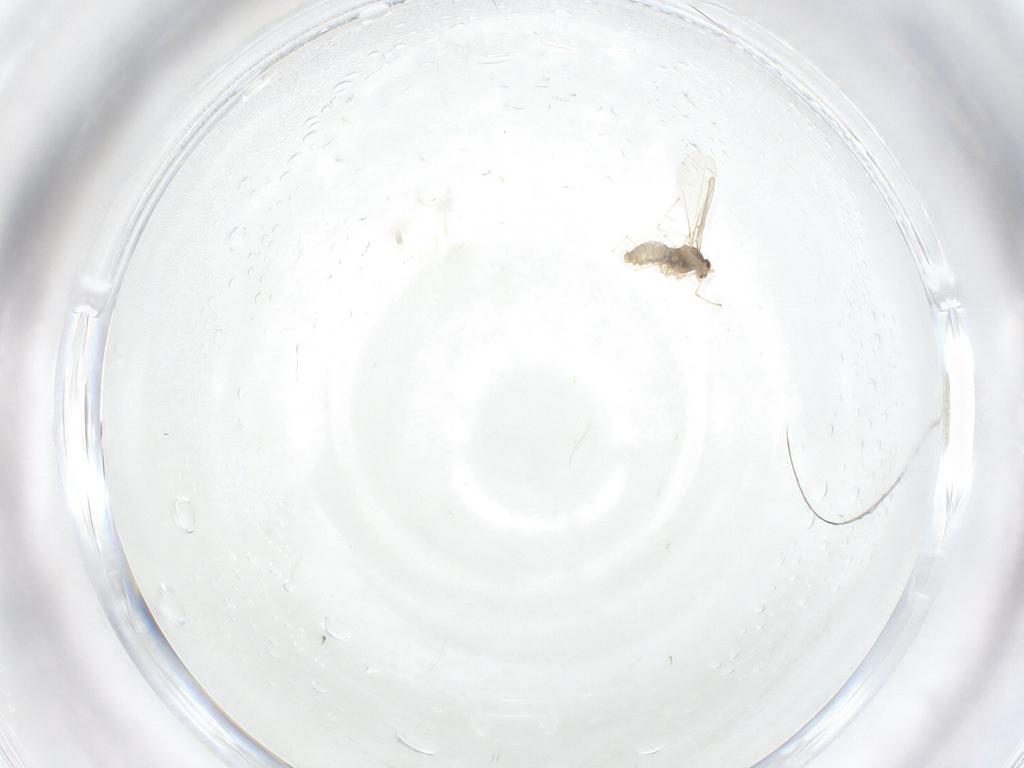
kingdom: Animalia
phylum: Arthropoda
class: Insecta
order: Diptera
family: Cecidomyiidae
